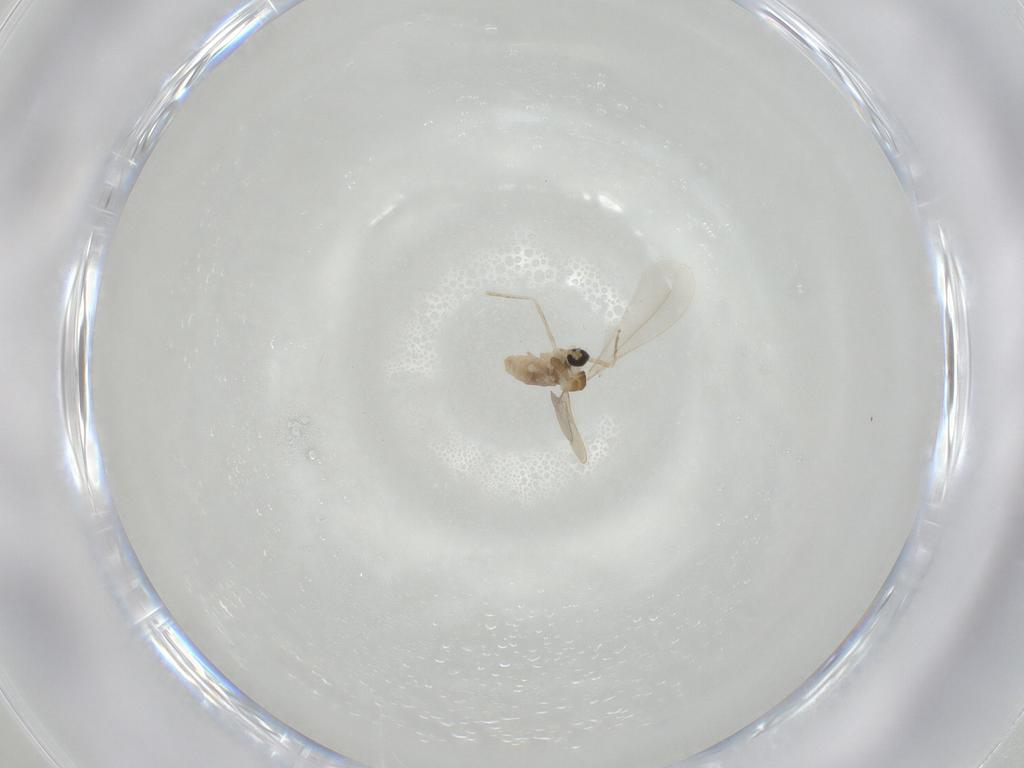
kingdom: Animalia
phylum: Arthropoda
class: Insecta
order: Diptera
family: Cecidomyiidae
